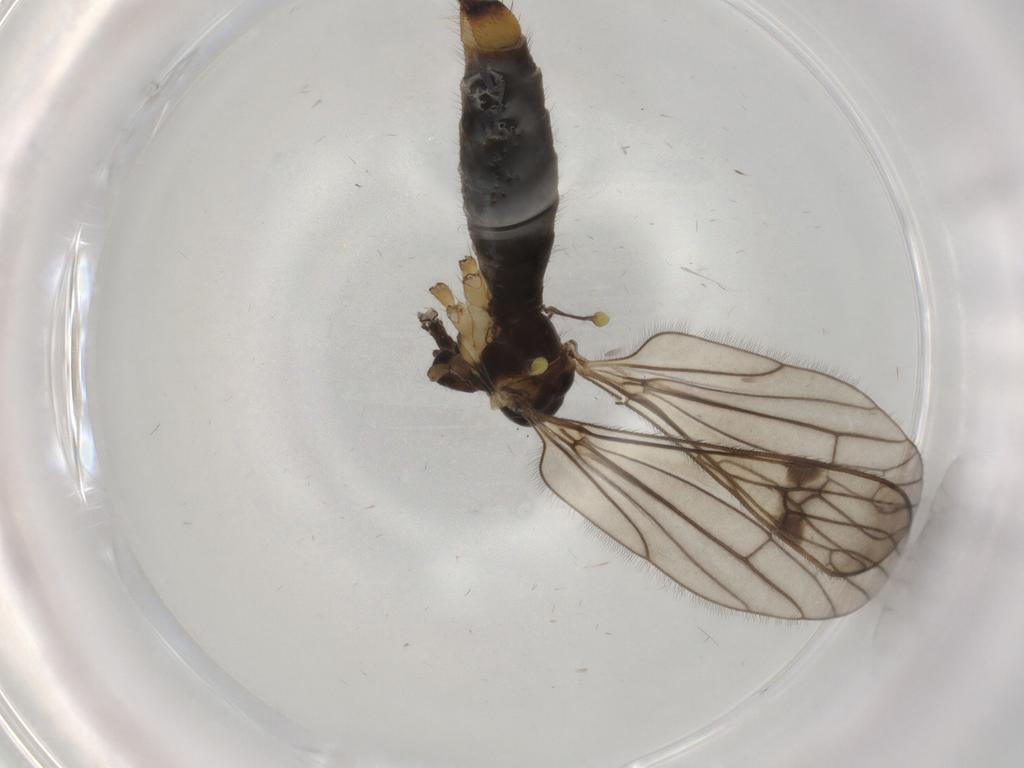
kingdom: Animalia
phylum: Arthropoda
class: Insecta
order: Diptera
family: Limoniidae
